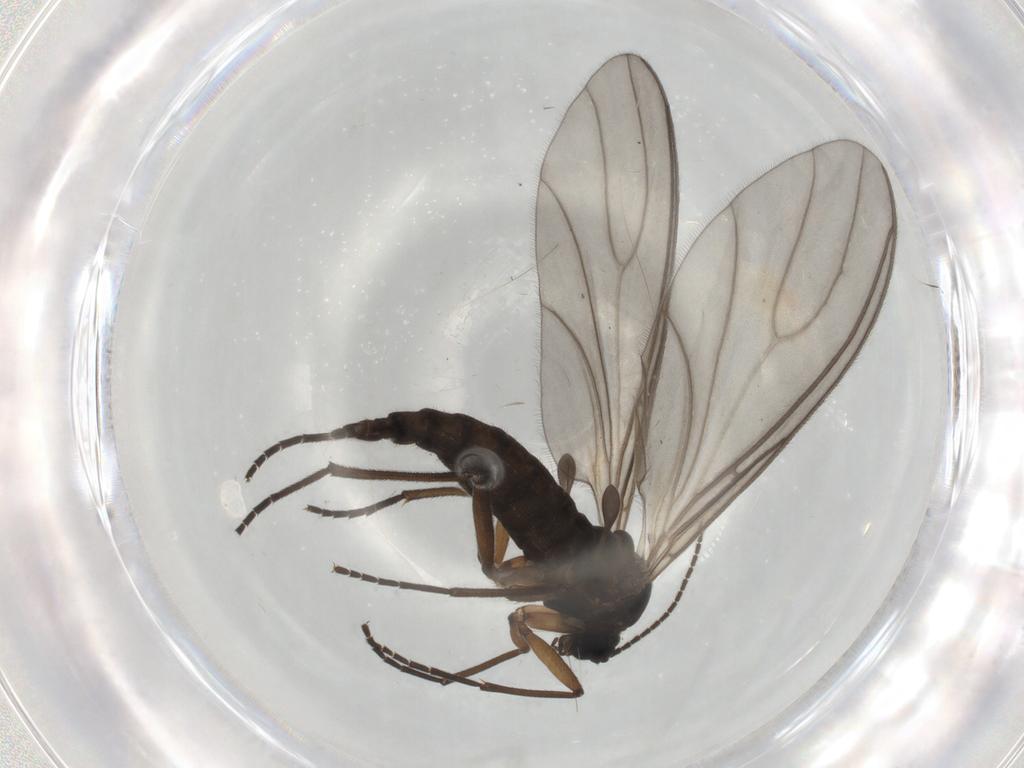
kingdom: Animalia
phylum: Arthropoda
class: Insecta
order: Diptera
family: Sciaridae
